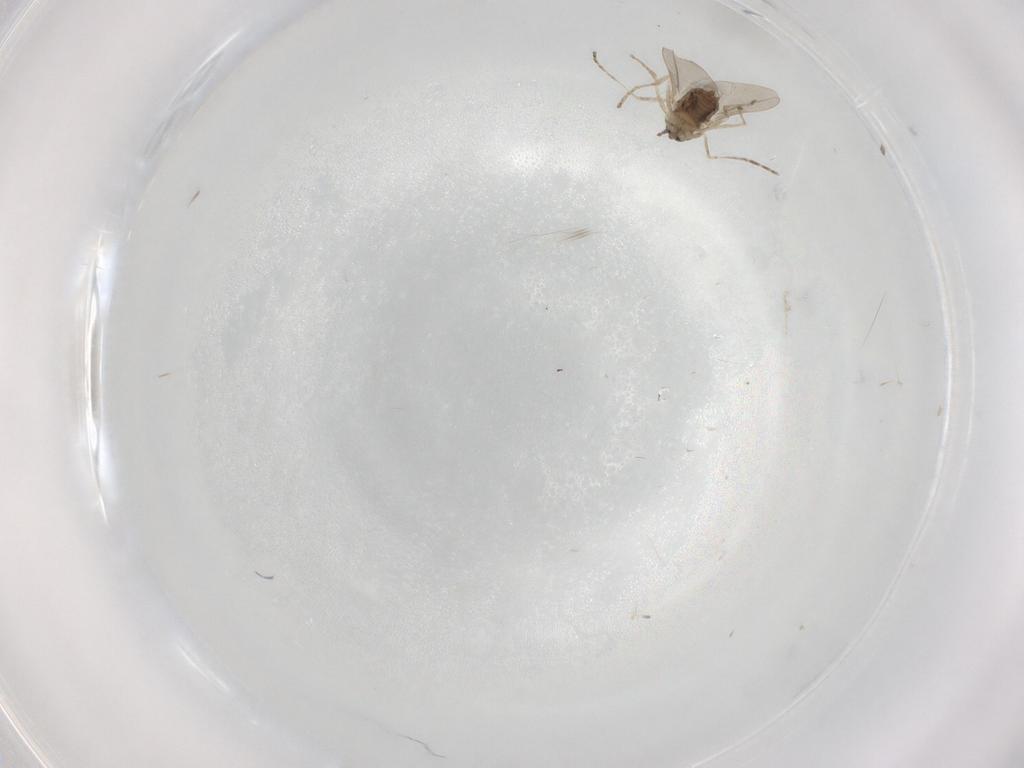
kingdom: Animalia
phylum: Arthropoda
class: Insecta
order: Diptera
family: Cecidomyiidae
